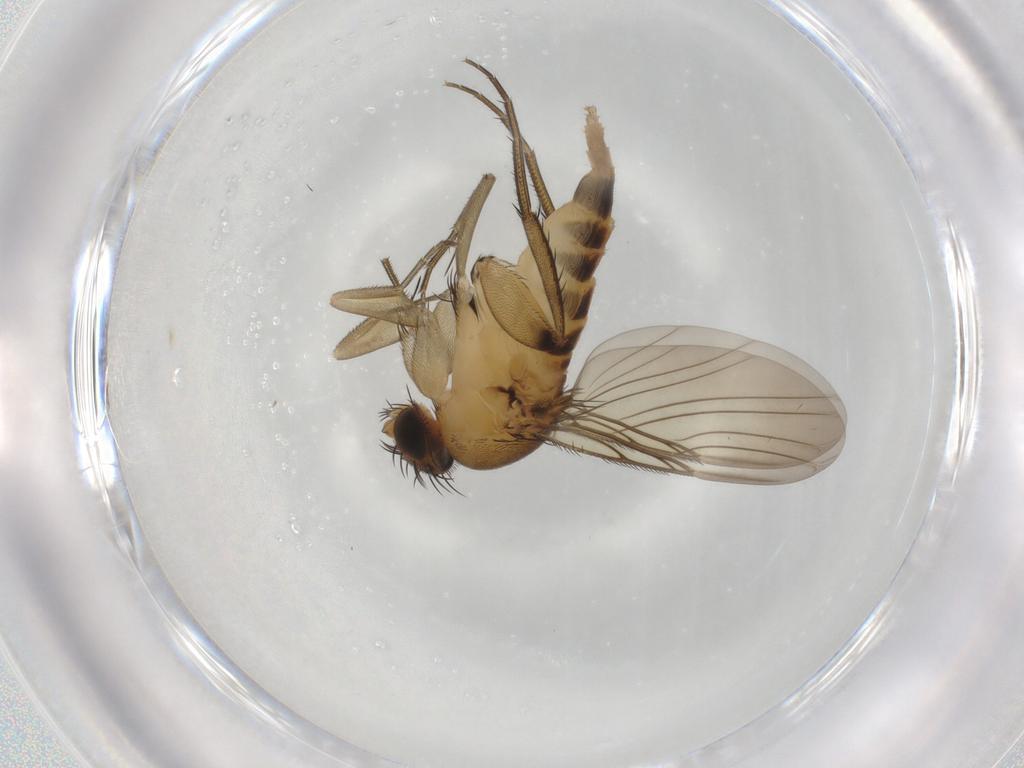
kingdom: Animalia
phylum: Arthropoda
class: Insecta
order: Diptera
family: Phoridae
